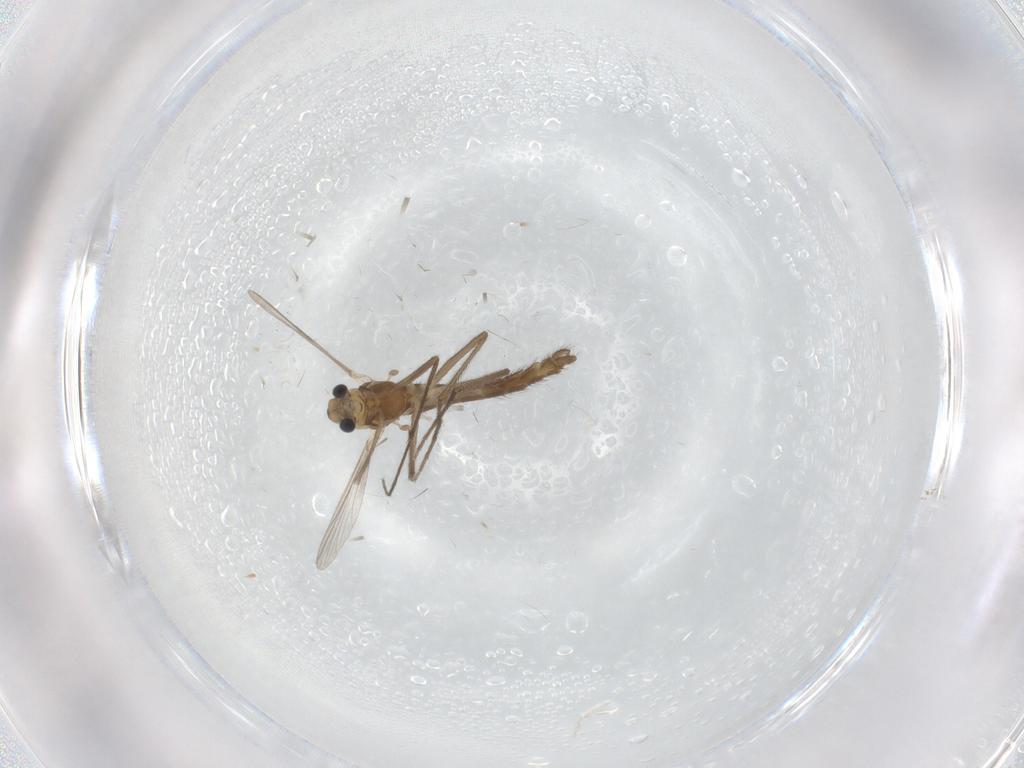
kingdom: Animalia
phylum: Arthropoda
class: Insecta
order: Diptera
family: Chironomidae
